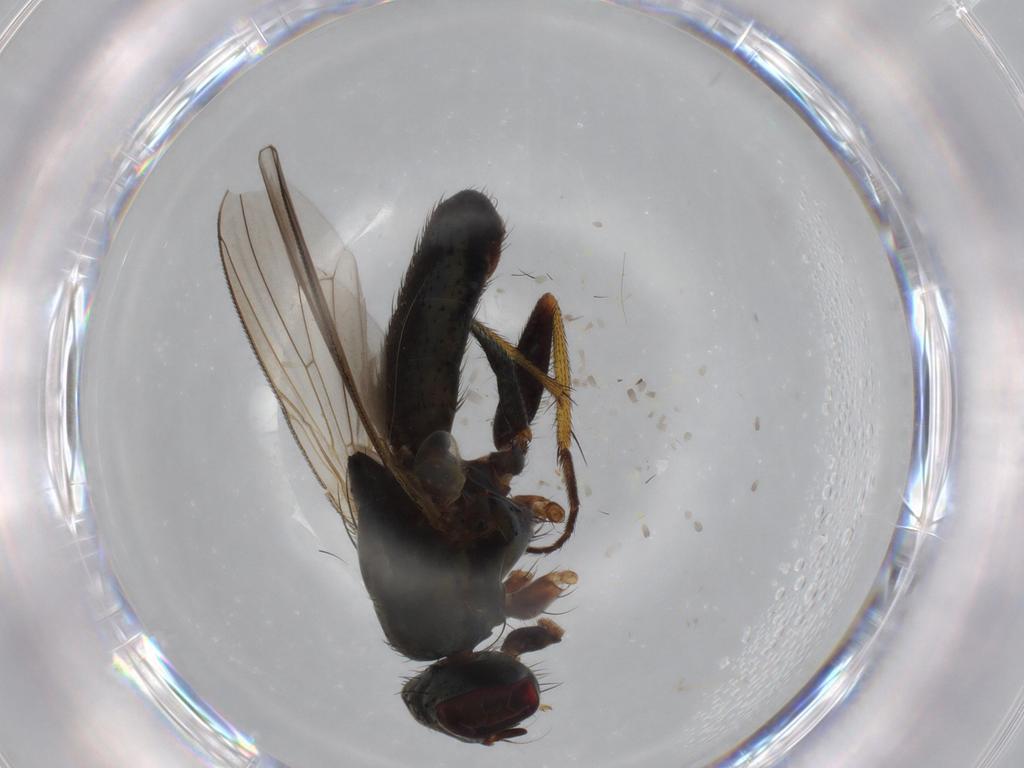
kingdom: Animalia
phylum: Arthropoda
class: Insecta
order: Diptera
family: Muscidae
